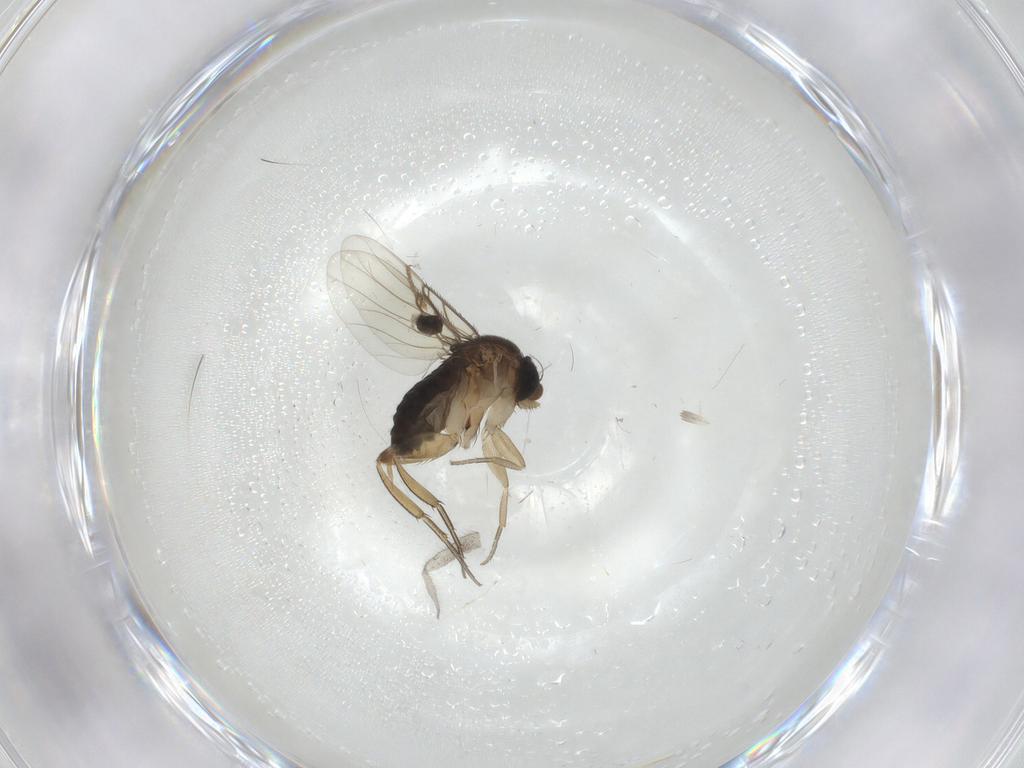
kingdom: Animalia
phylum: Arthropoda
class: Insecta
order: Diptera
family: Phoridae
